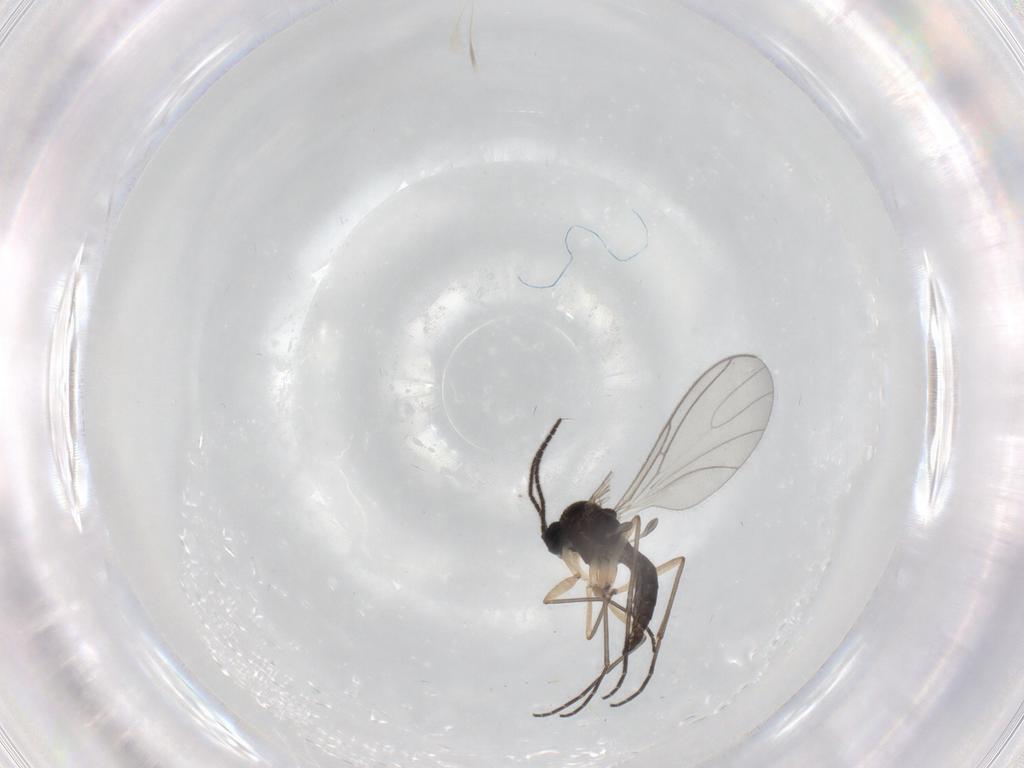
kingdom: Animalia
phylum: Arthropoda
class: Insecta
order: Diptera
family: Sciaridae
